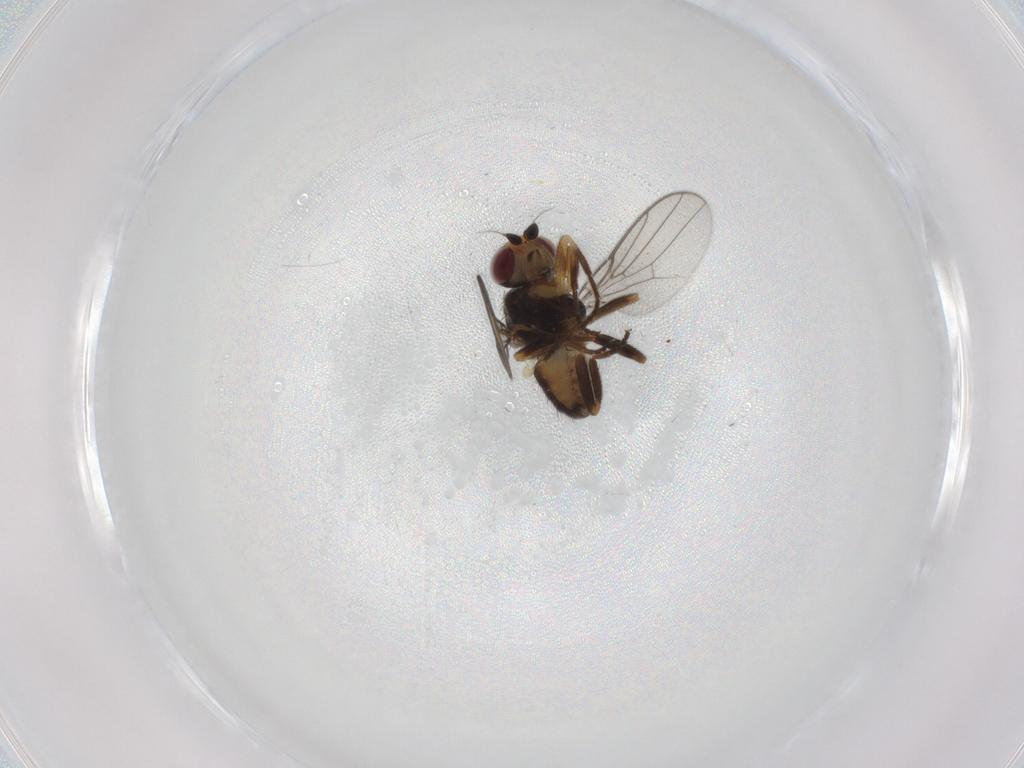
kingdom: Animalia
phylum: Arthropoda
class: Insecta
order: Diptera
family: Chloropidae
